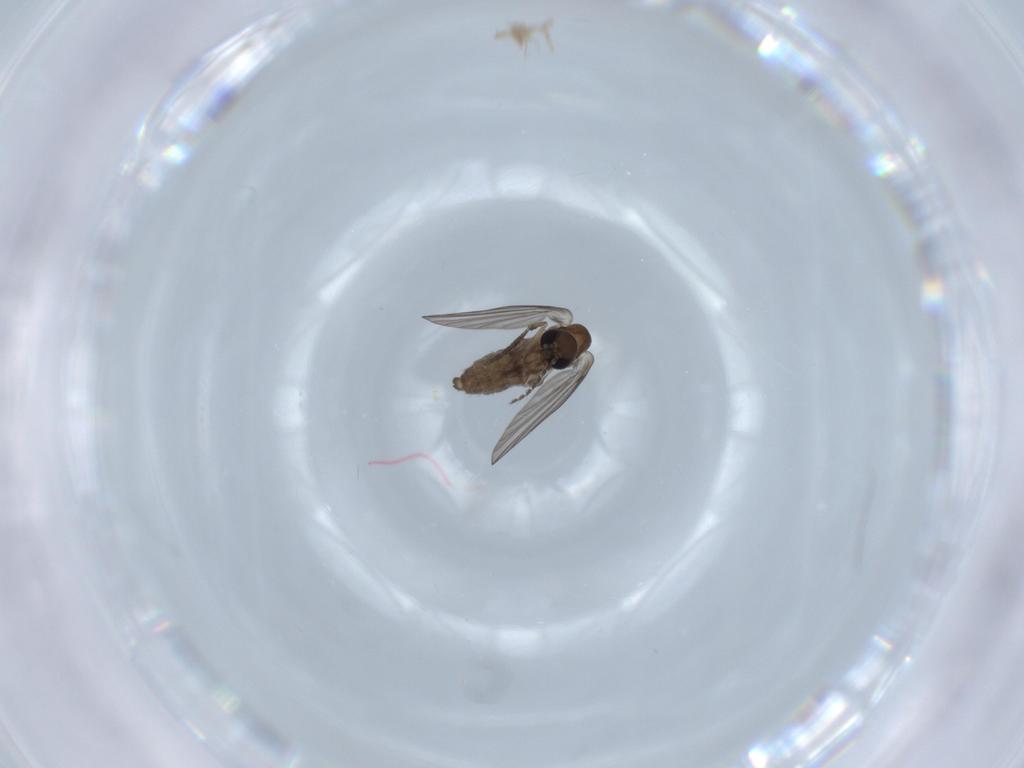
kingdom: Animalia
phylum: Arthropoda
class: Insecta
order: Diptera
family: Psychodidae
